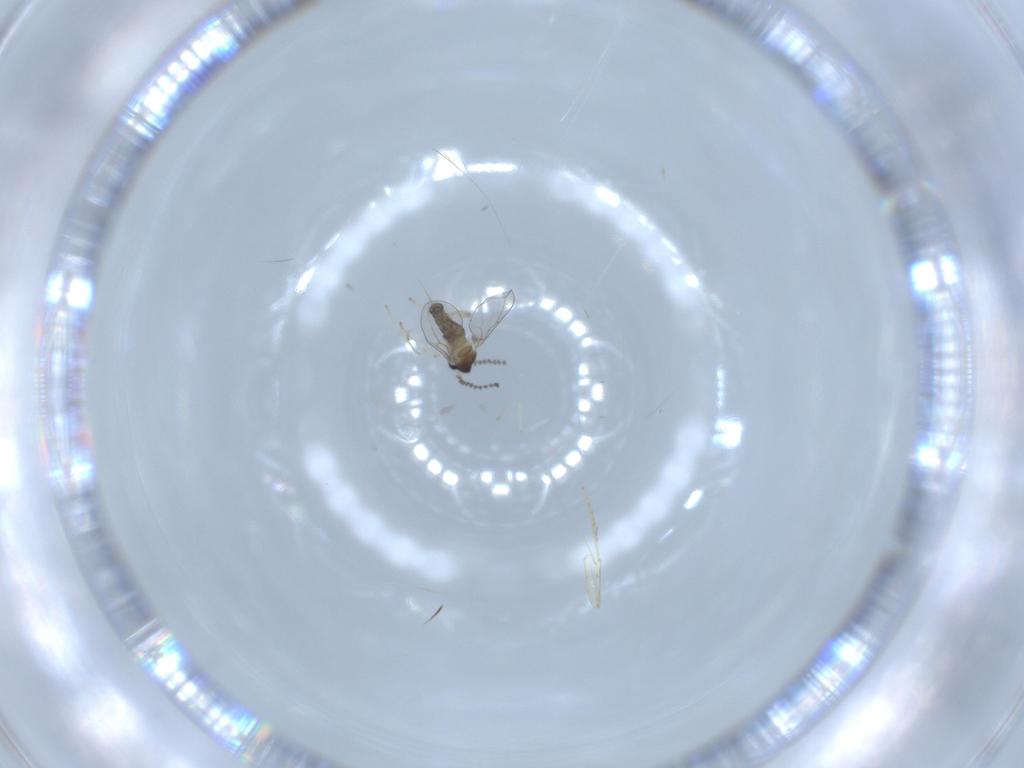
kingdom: Animalia
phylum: Arthropoda
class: Insecta
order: Diptera
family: Cecidomyiidae
